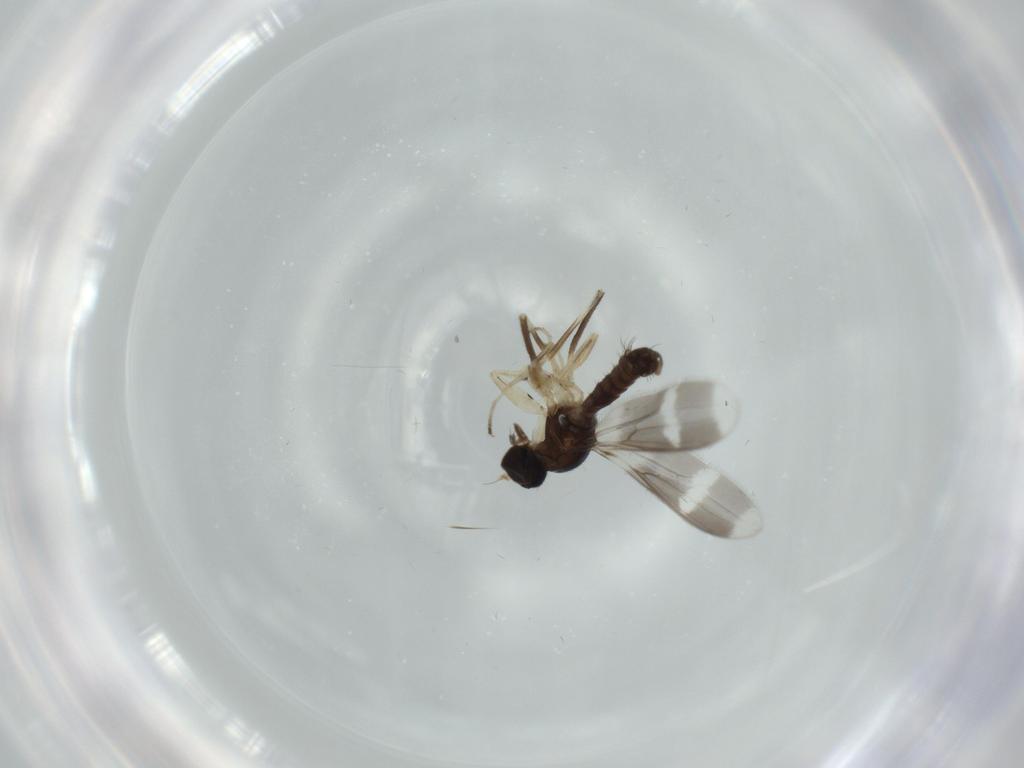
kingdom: Animalia
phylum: Arthropoda
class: Insecta
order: Diptera
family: Hybotidae
